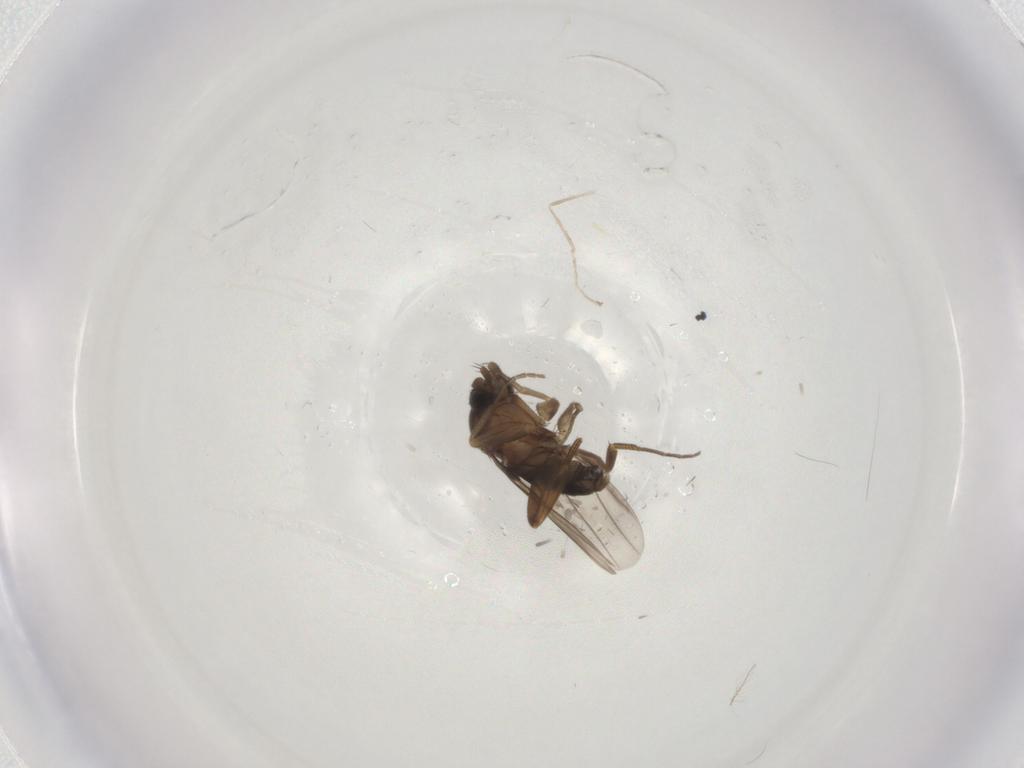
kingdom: Animalia
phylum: Arthropoda
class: Insecta
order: Diptera
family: Phoridae
